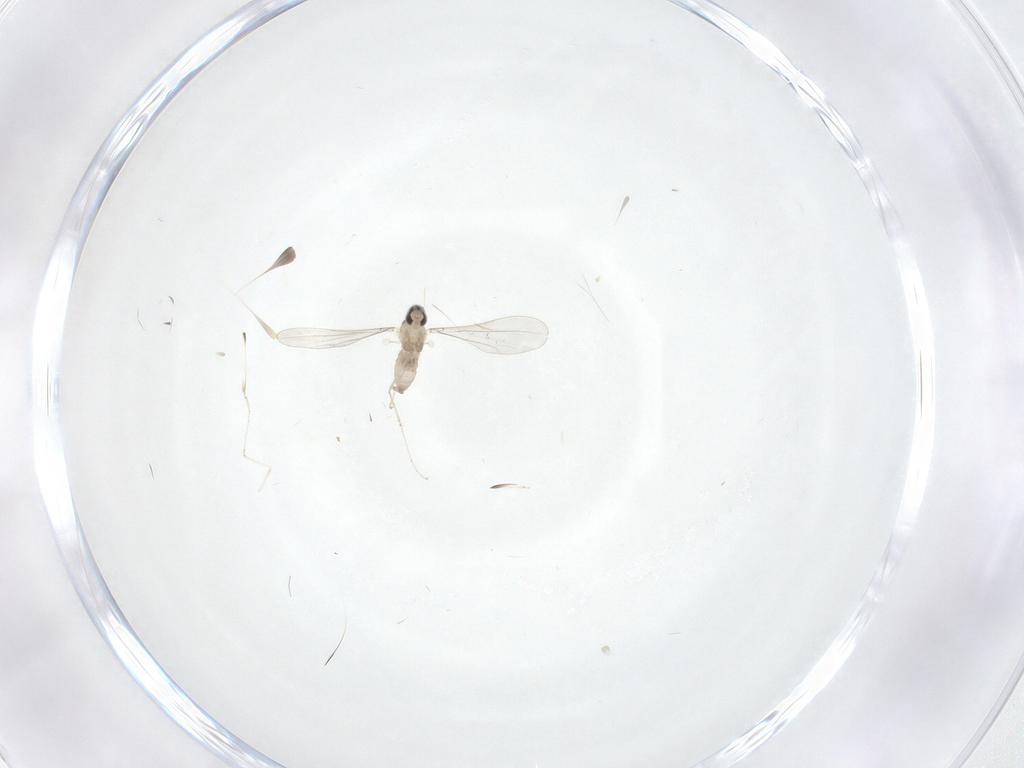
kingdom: Animalia
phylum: Arthropoda
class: Insecta
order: Diptera
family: Cecidomyiidae
